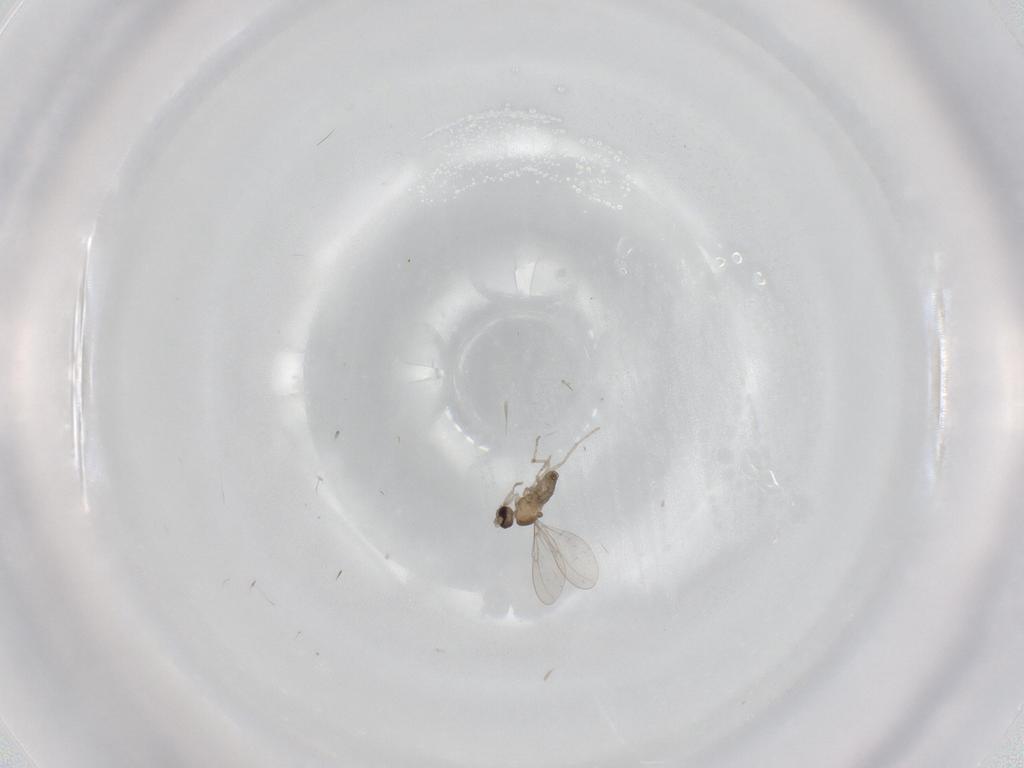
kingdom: Animalia
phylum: Arthropoda
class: Insecta
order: Diptera
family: Cecidomyiidae
